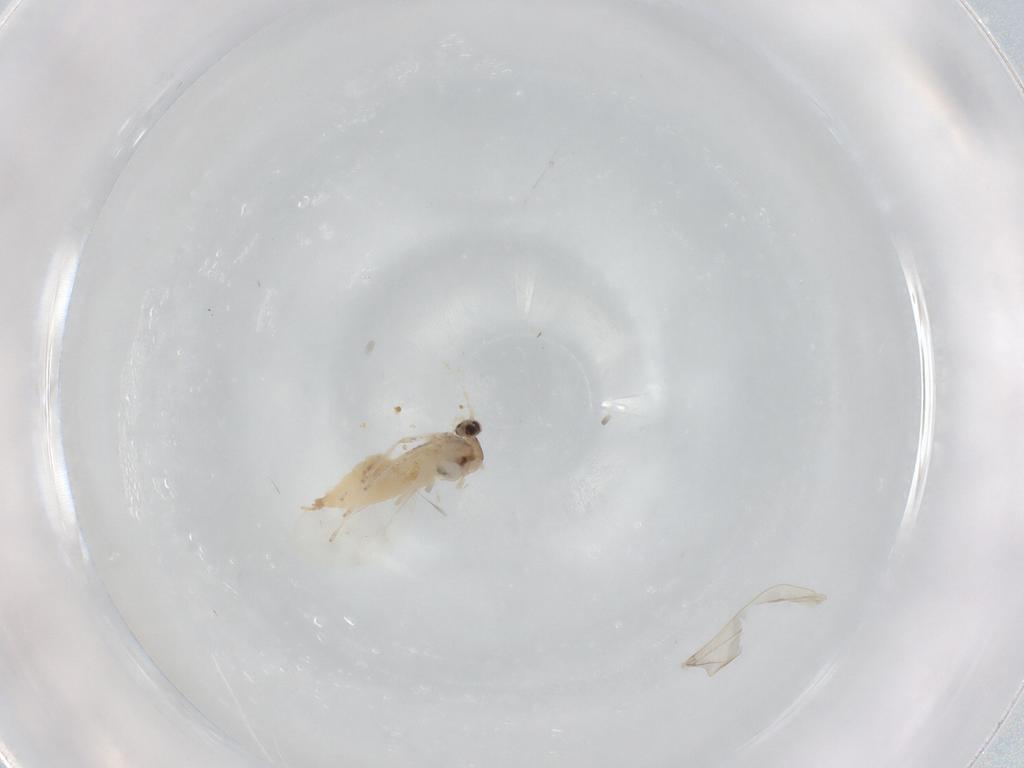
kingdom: Animalia
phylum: Arthropoda
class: Insecta
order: Diptera
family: Cecidomyiidae
